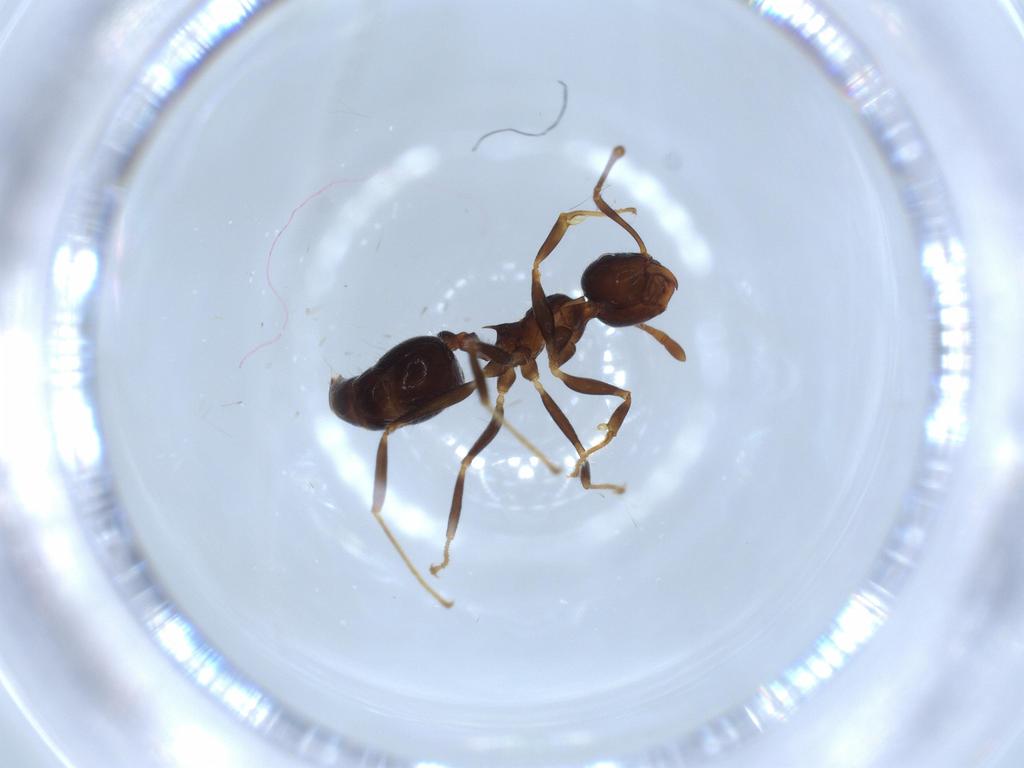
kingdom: Animalia
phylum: Arthropoda
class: Insecta
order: Hymenoptera
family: Formicidae
